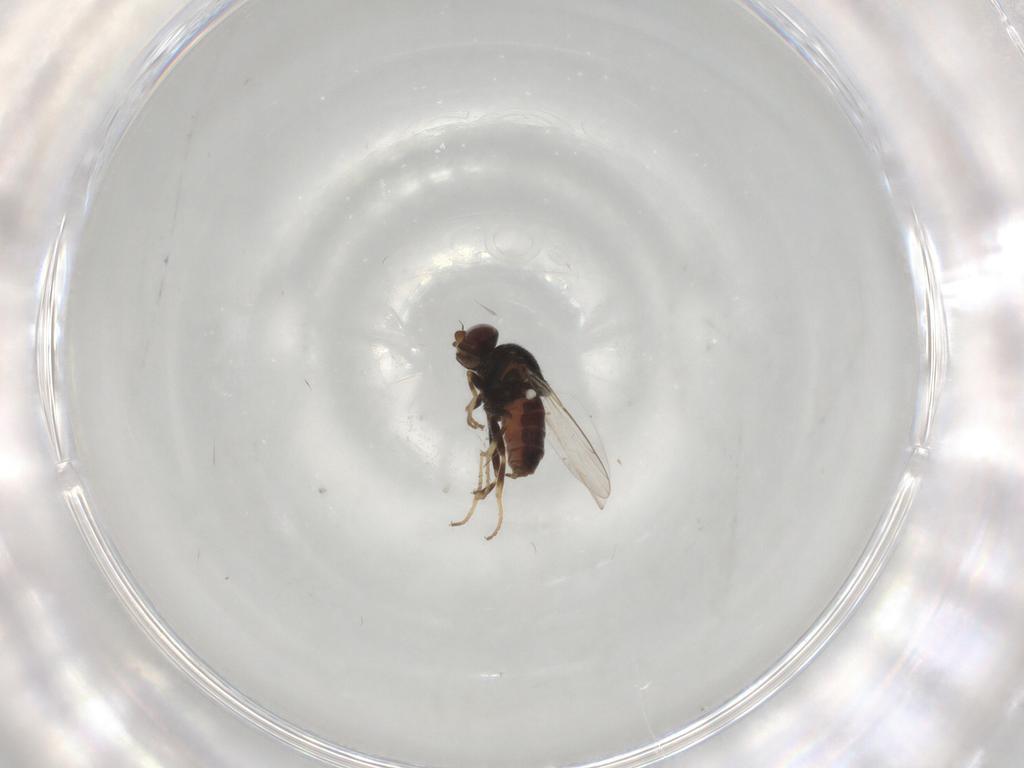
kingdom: Animalia
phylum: Arthropoda
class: Insecta
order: Diptera
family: Chloropidae
